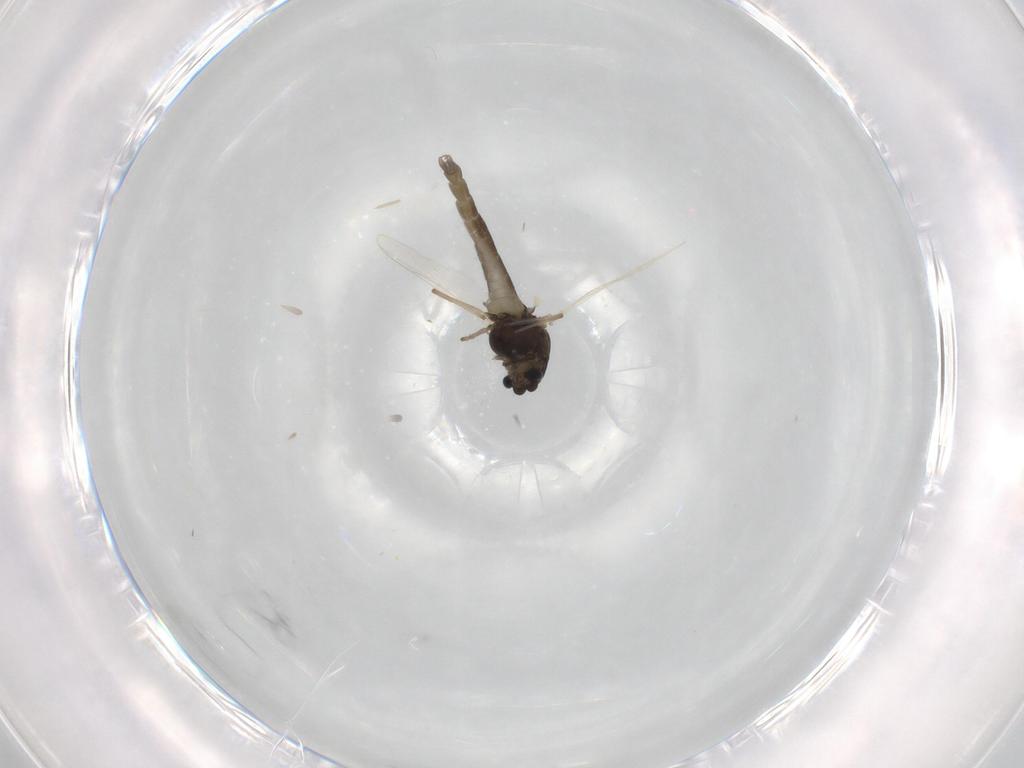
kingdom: Animalia
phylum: Arthropoda
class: Insecta
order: Diptera
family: Chironomidae
